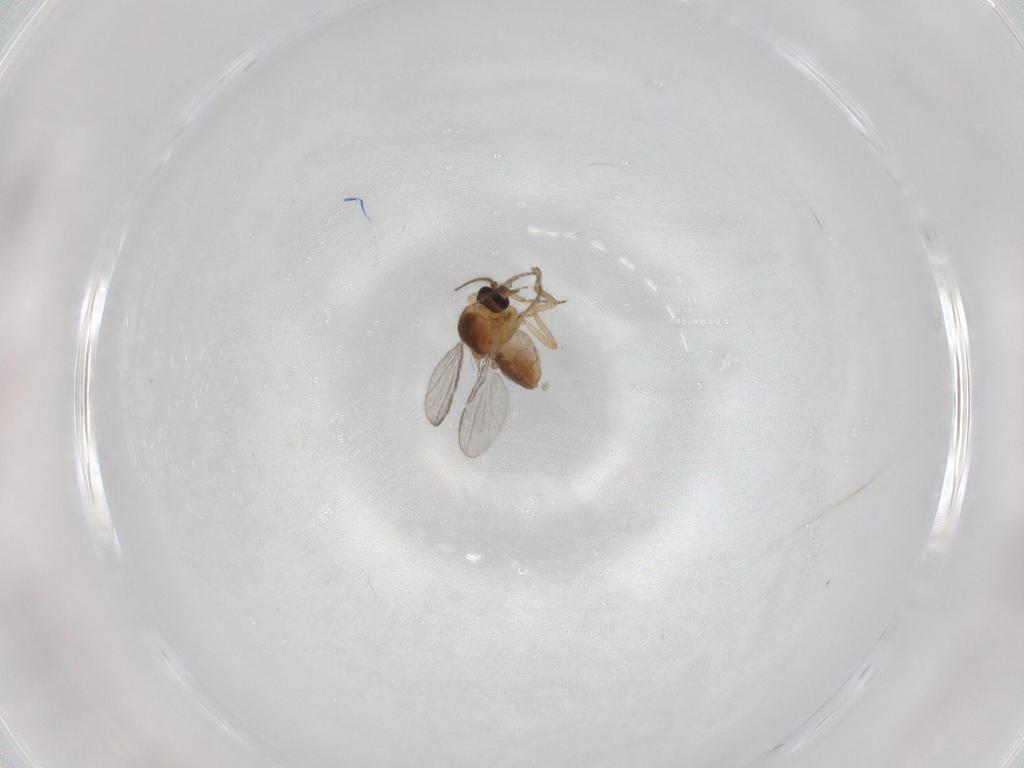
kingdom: Animalia
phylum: Arthropoda
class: Insecta
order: Diptera
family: Ceratopogonidae
